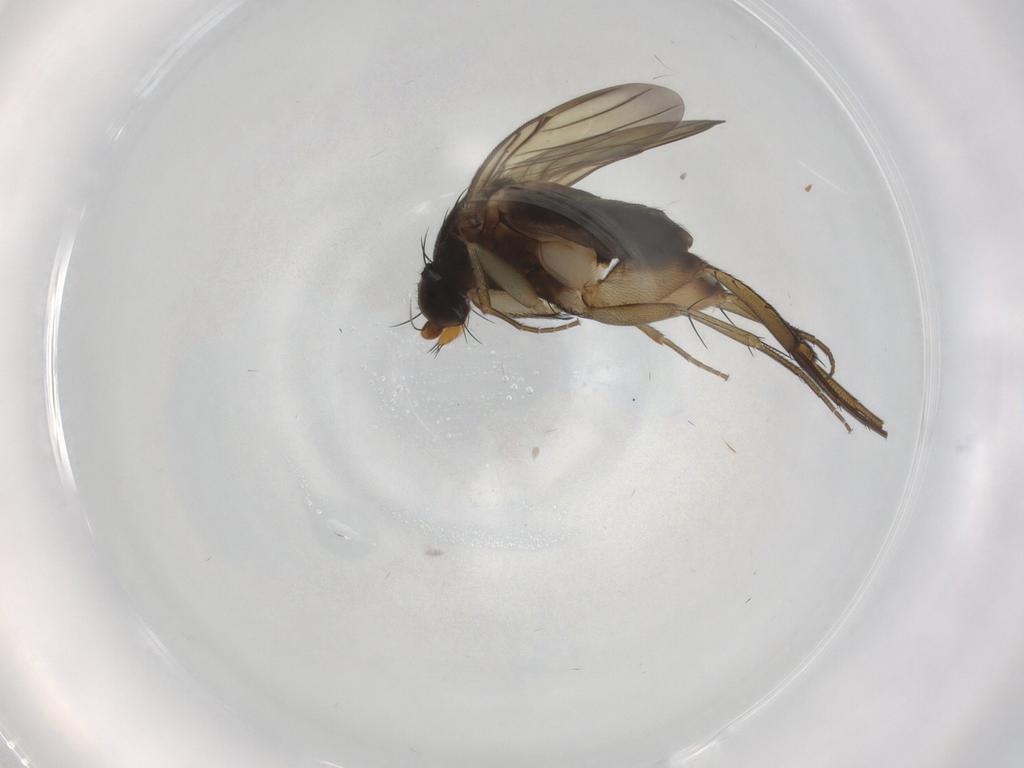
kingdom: Animalia
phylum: Arthropoda
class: Insecta
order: Diptera
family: Phoridae
